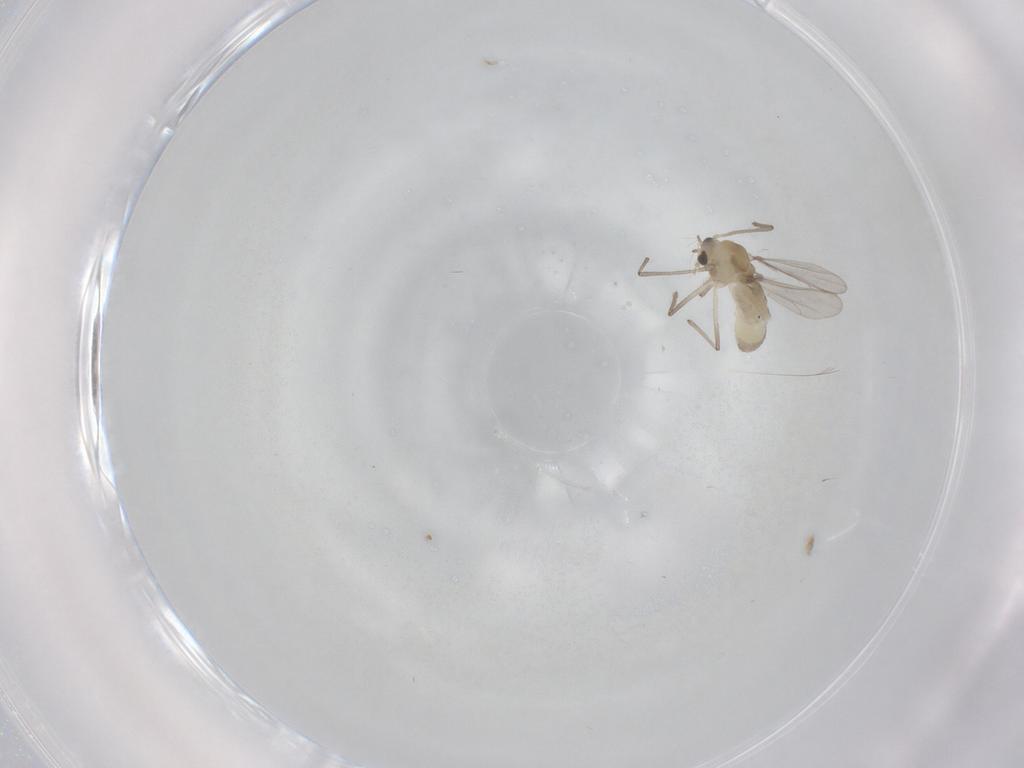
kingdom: Animalia
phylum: Arthropoda
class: Insecta
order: Diptera
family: Chironomidae
